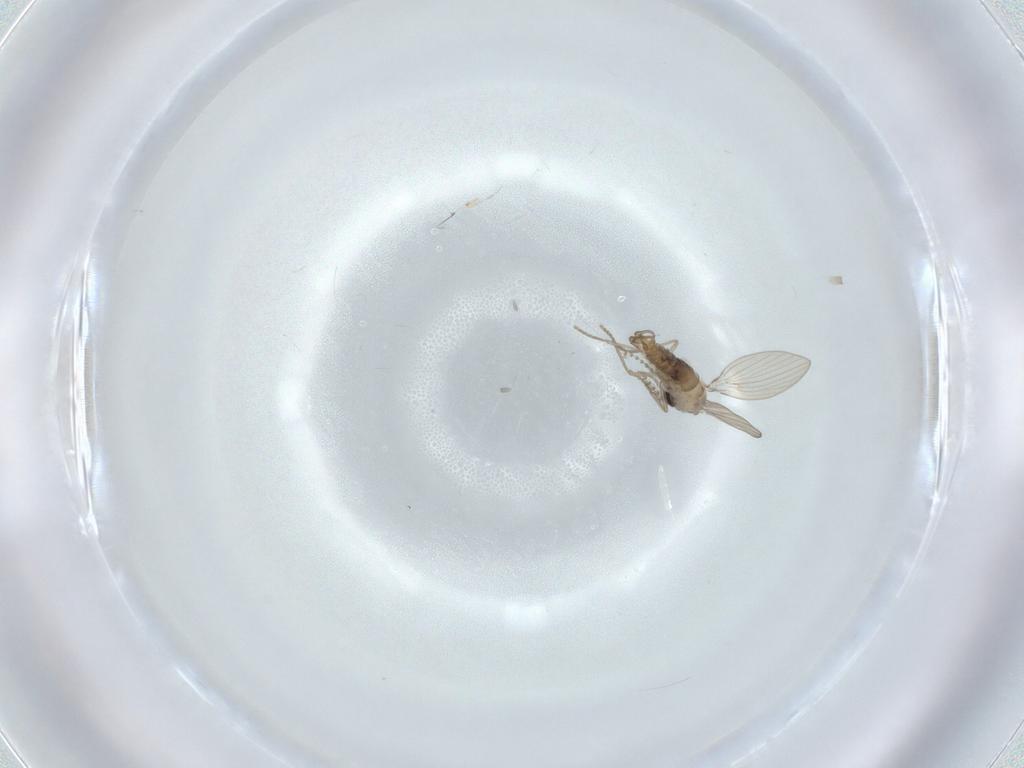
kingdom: Animalia
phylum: Arthropoda
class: Insecta
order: Diptera
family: Psychodidae
